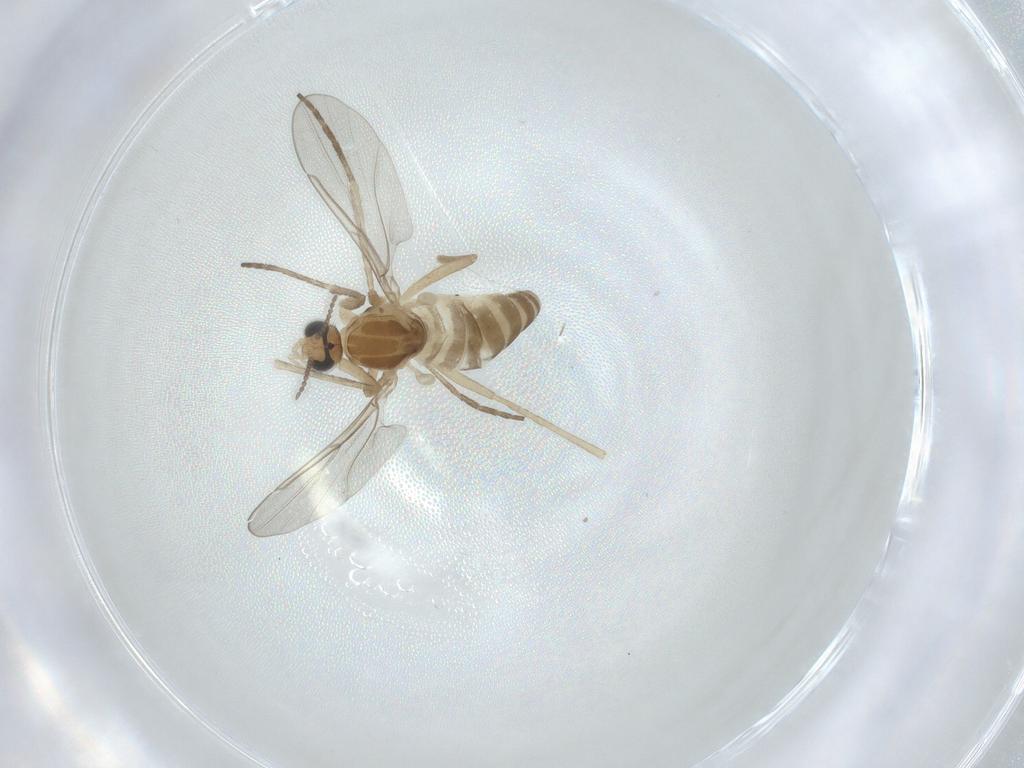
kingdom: Animalia
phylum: Arthropoda
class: Insecta
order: Diptera
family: Cecidomyiidae
